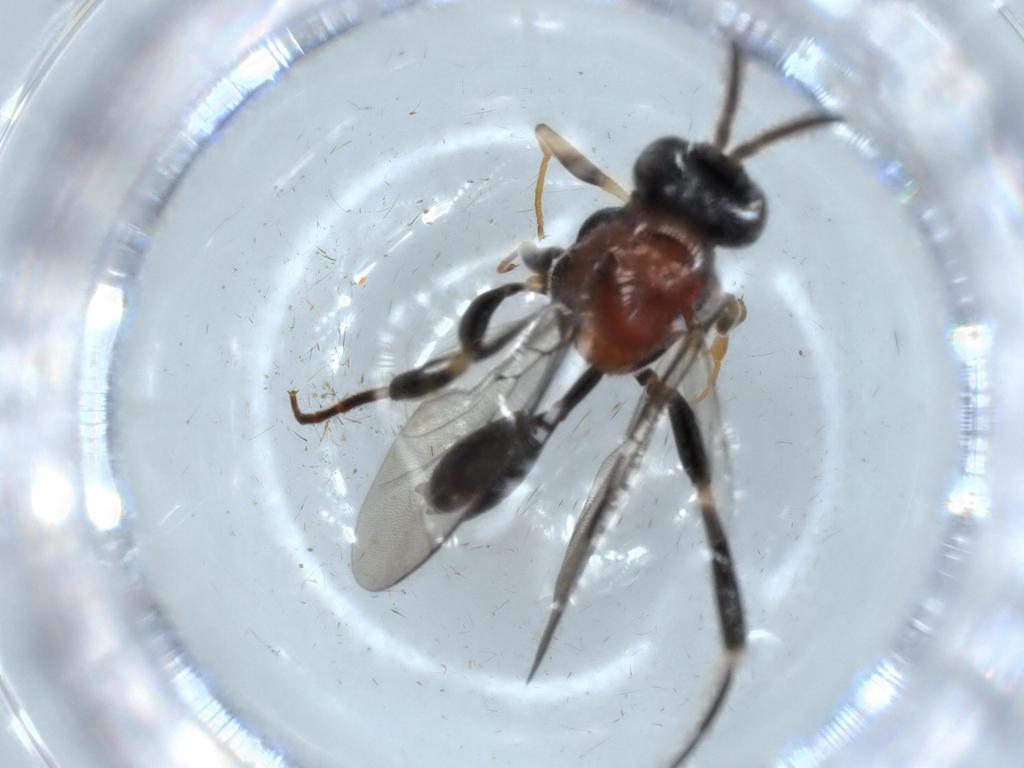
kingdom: Animalia
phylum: Arthropoda
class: Insecta
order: Hymenoptera
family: Evaniidae
